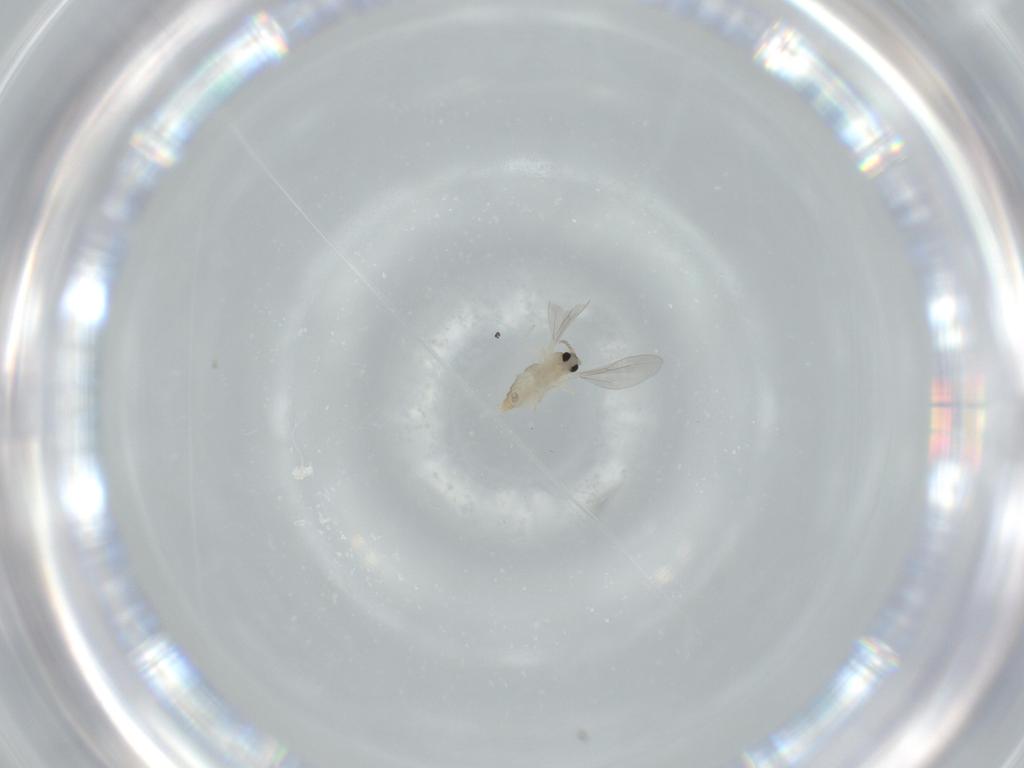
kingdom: Animalia
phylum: Arthropoda
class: Insecta
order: Diptera
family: Cecidomyiidae
